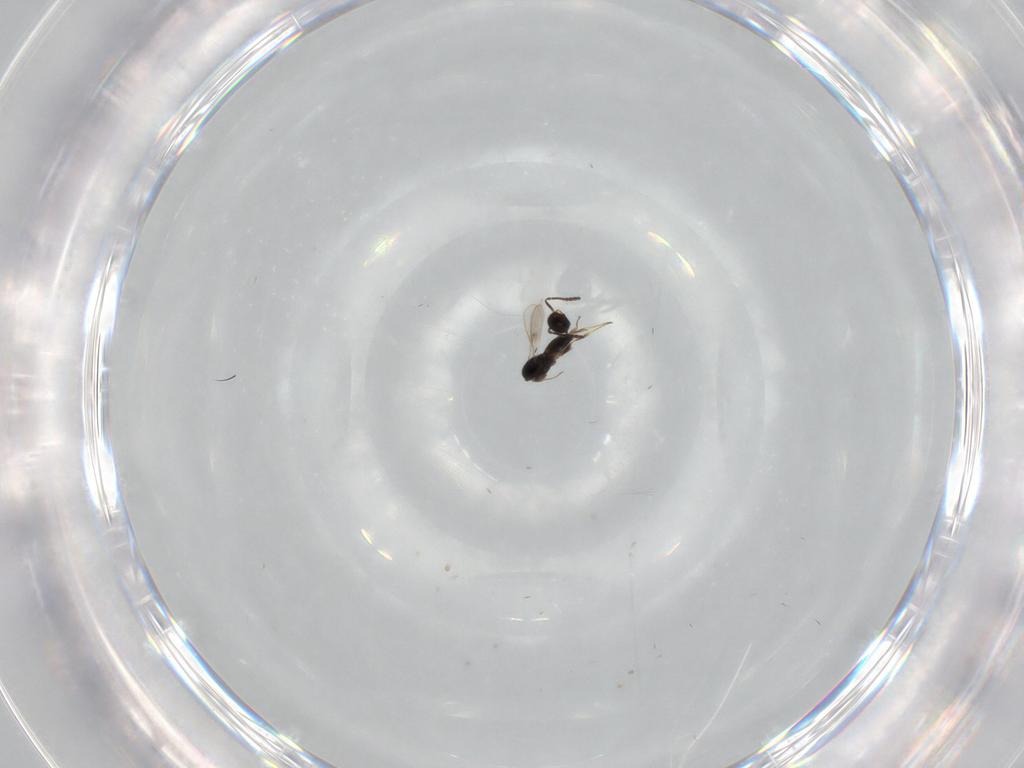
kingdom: Animalia
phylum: Arthropoda
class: Insecta
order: Hymenoptera
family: Scelionidae
